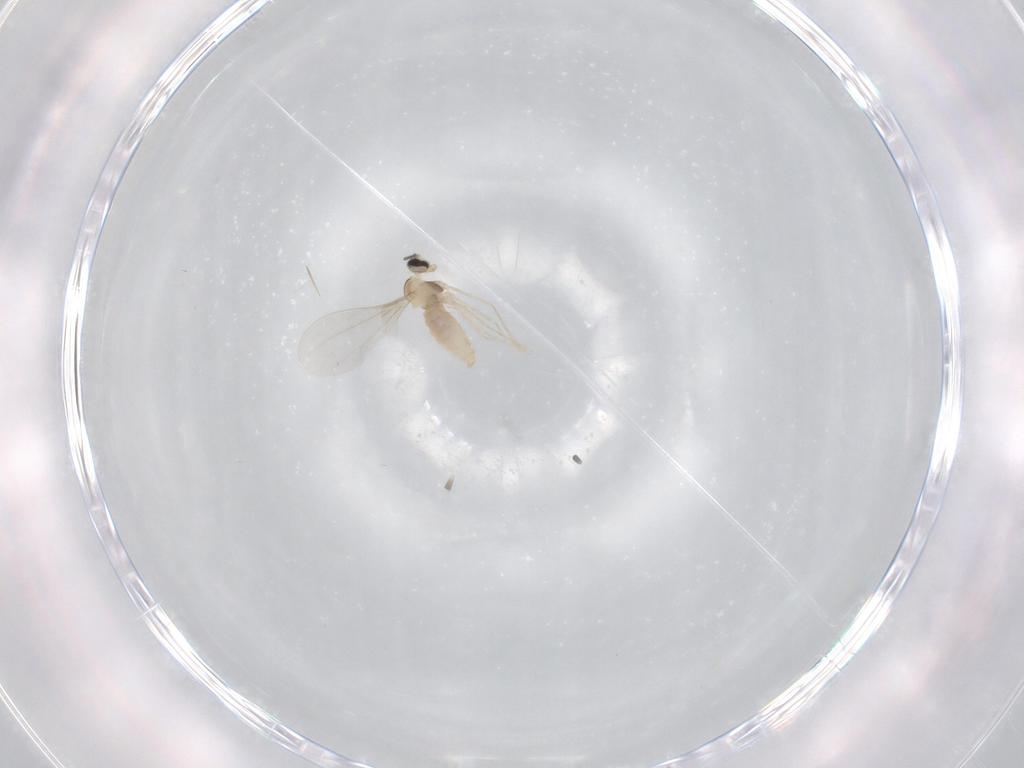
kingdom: Animalia
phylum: Arthropoda
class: Insecta
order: Diptera
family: Cecidomyiidae
